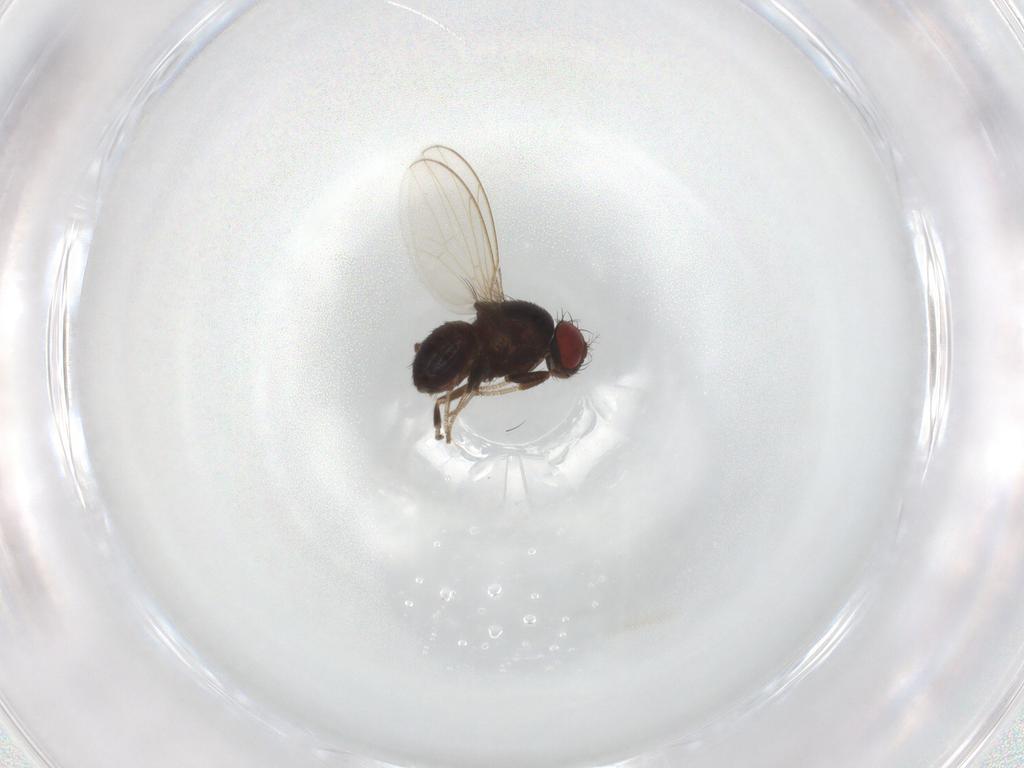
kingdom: Animalia
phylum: Arthropoda
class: Insecta
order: Diptera
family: Drosophilidae
